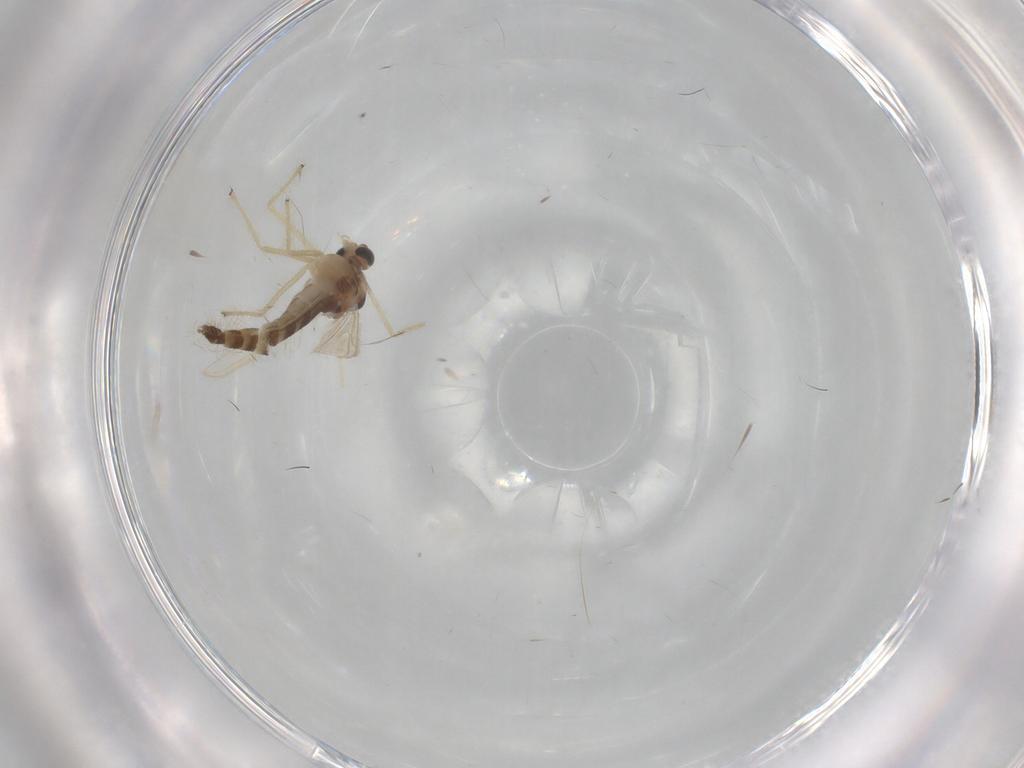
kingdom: Animalia
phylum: Arthropoda
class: Insecta
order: Diptera
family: Chironomidae
